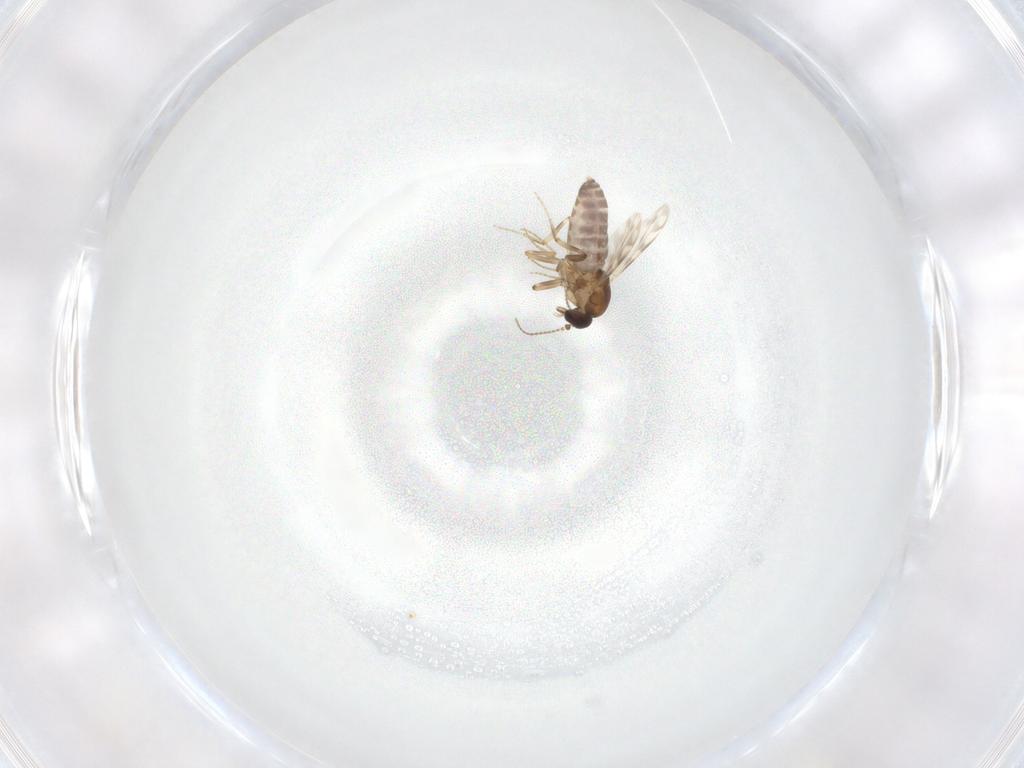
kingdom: Animalia
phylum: Arthropoda
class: Insecta
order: Diptera
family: Ceratopogonidae
